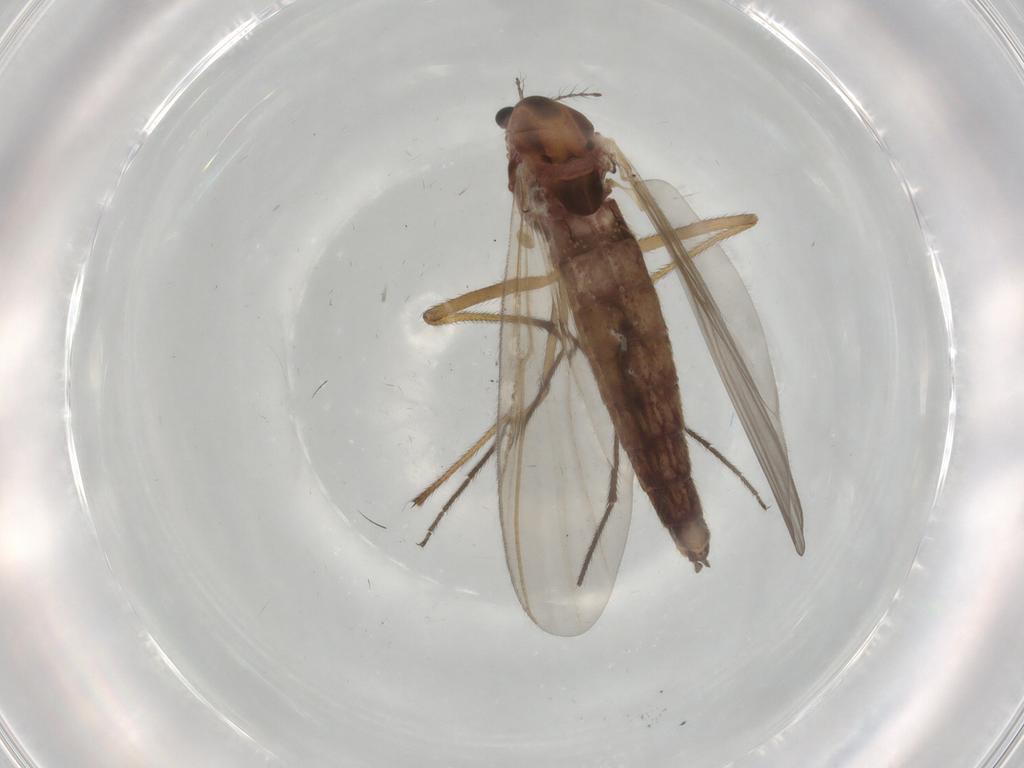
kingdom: Animalia
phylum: Arthropoda
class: Insecta
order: Diptera
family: Chironomidae
